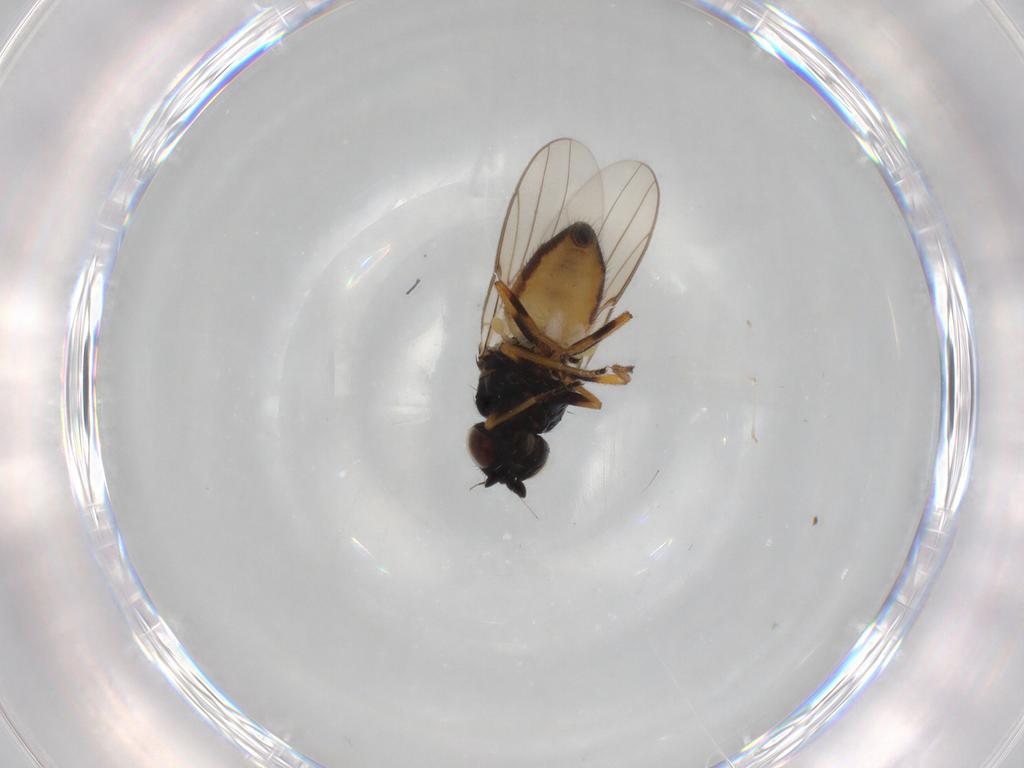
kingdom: Animalia
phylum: Arthropoda
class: Insecta
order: Diptera
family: Chloropidae
